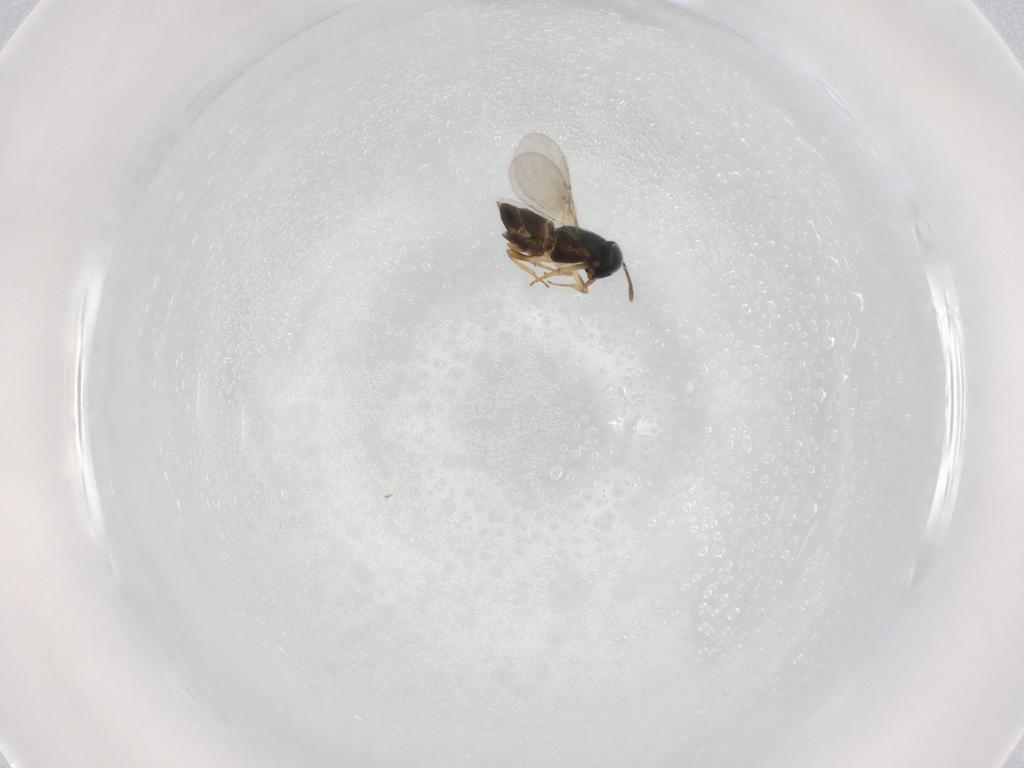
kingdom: Animalia
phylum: Arthropoda
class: Insecta
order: Hymenoptera
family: Encyrtidae
